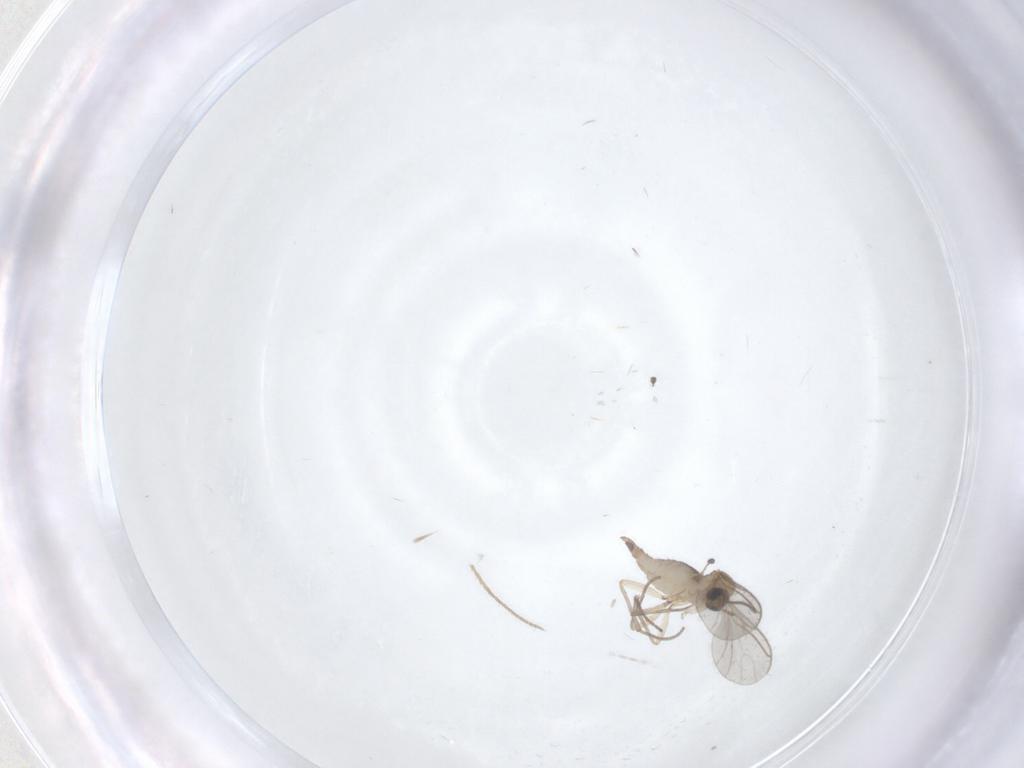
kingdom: Animalia
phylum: Arthropoda
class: Insecta
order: Diptera
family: Sciaridae
